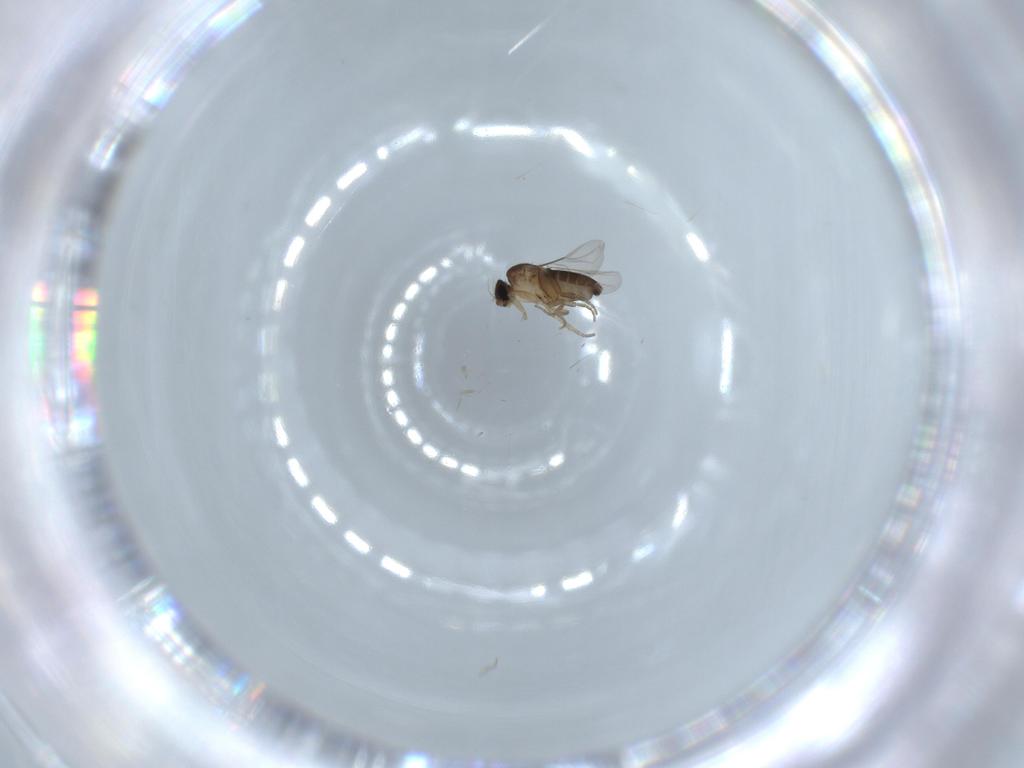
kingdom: Animalia
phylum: Arthropoda
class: Insecta
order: Diptera
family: Phoridae
